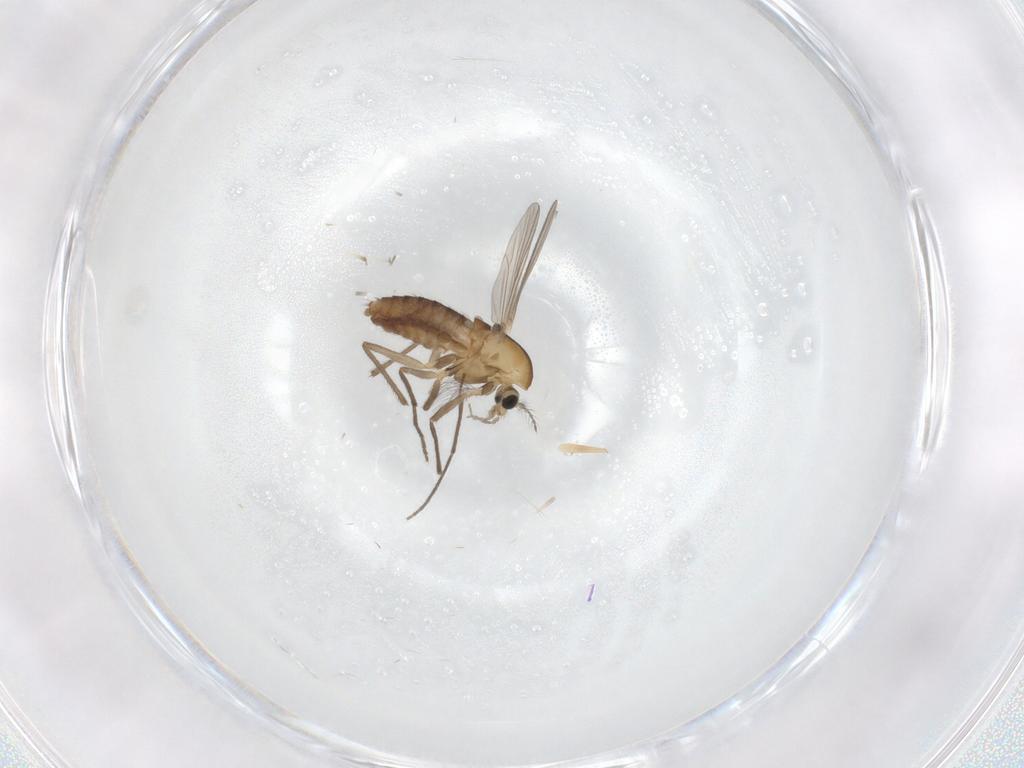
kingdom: Animalia
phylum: Arthropoda
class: Insecta
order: Diptera
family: Chironomidae
